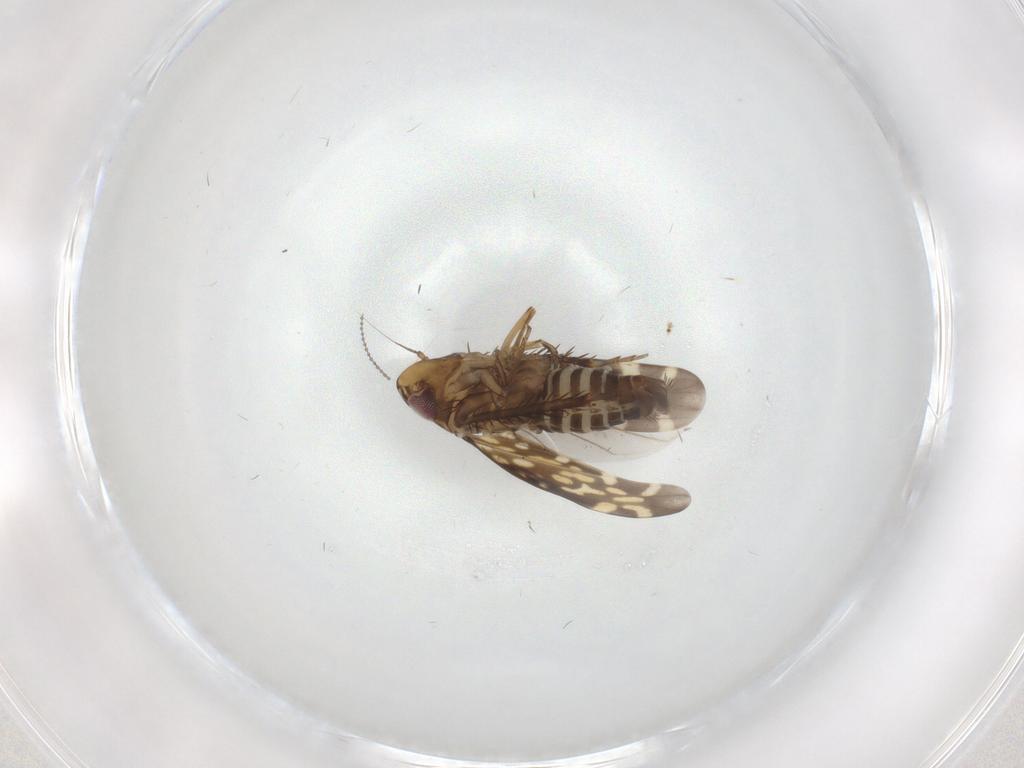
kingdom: Animalia
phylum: Arthropoda
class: Insecta
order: Hemiptera
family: Cicadellidae
